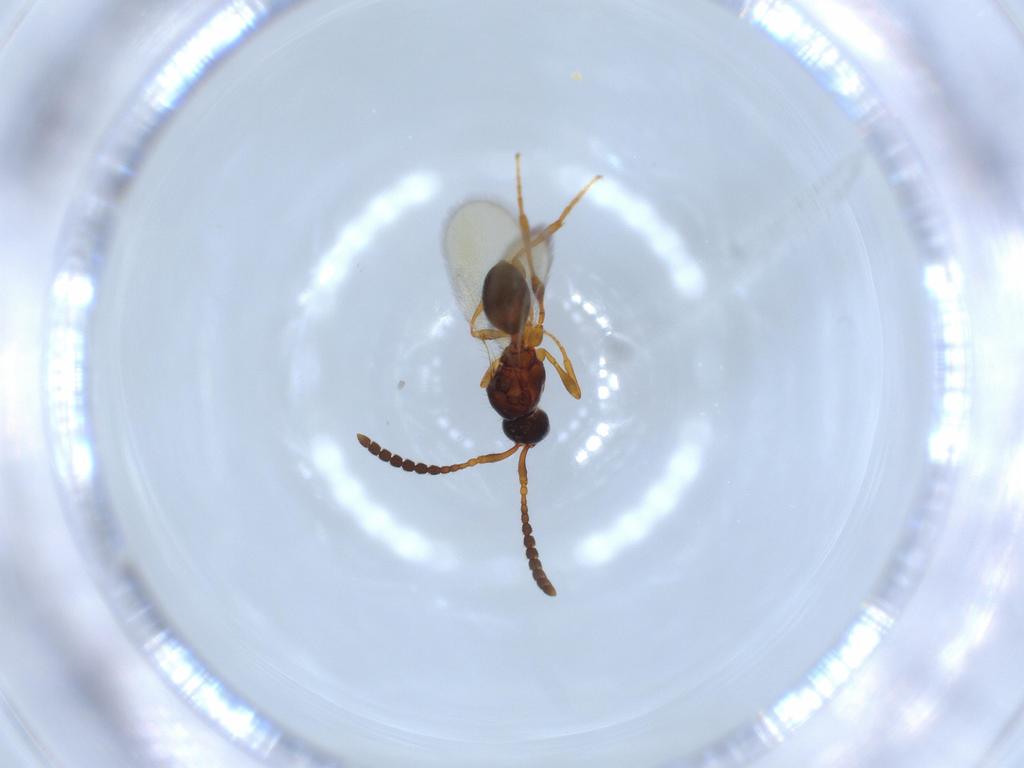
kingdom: Animalia
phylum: Arthropoda
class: Insecta
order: Hymenoptera
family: Diapriidae
